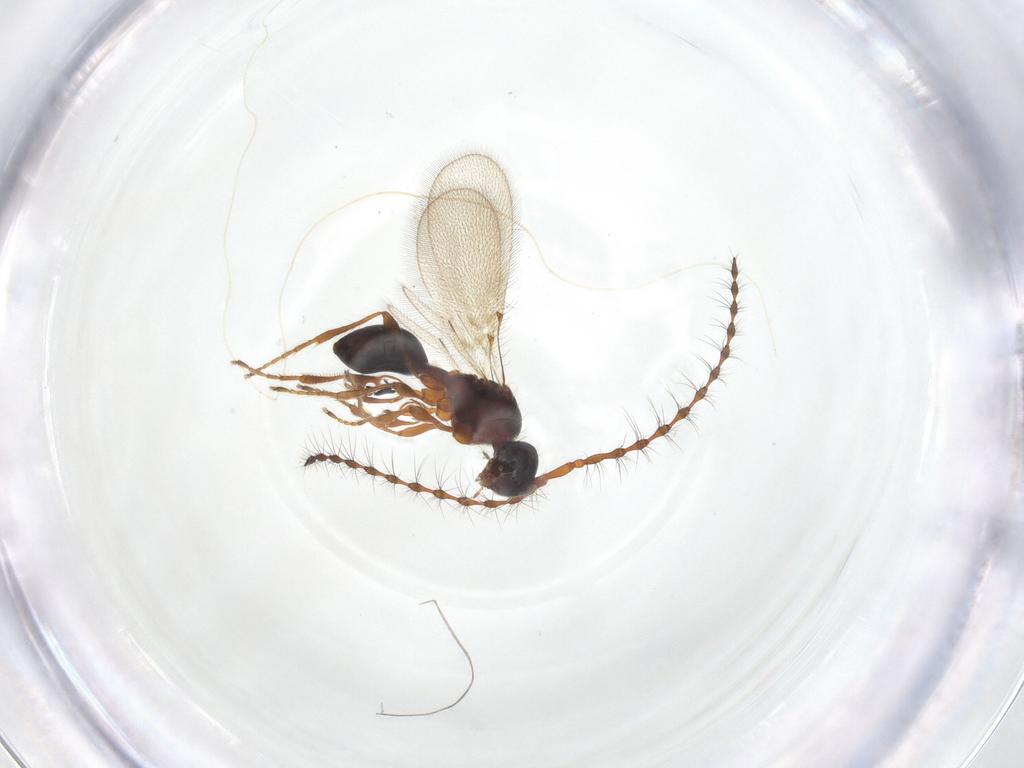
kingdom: Animalia
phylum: Arthropoda
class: Insecta
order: Hymenoptera
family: Diapriidae
